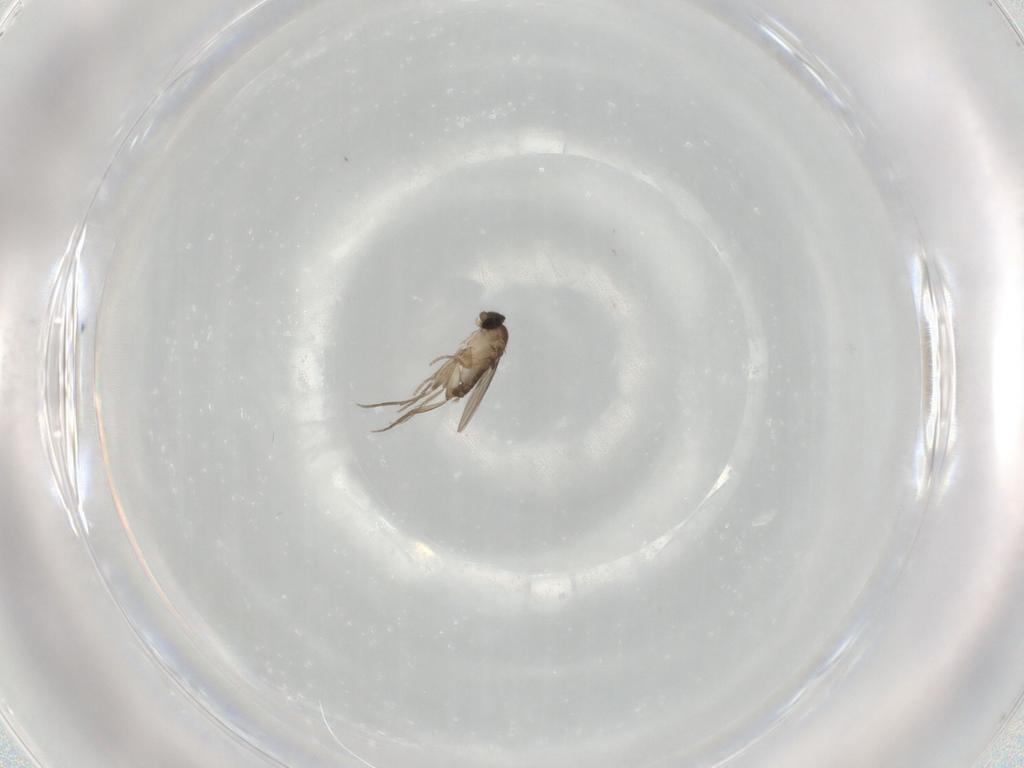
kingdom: Animalia
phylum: Arthropoda
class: Insecta
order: Diptera
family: Phoridae
